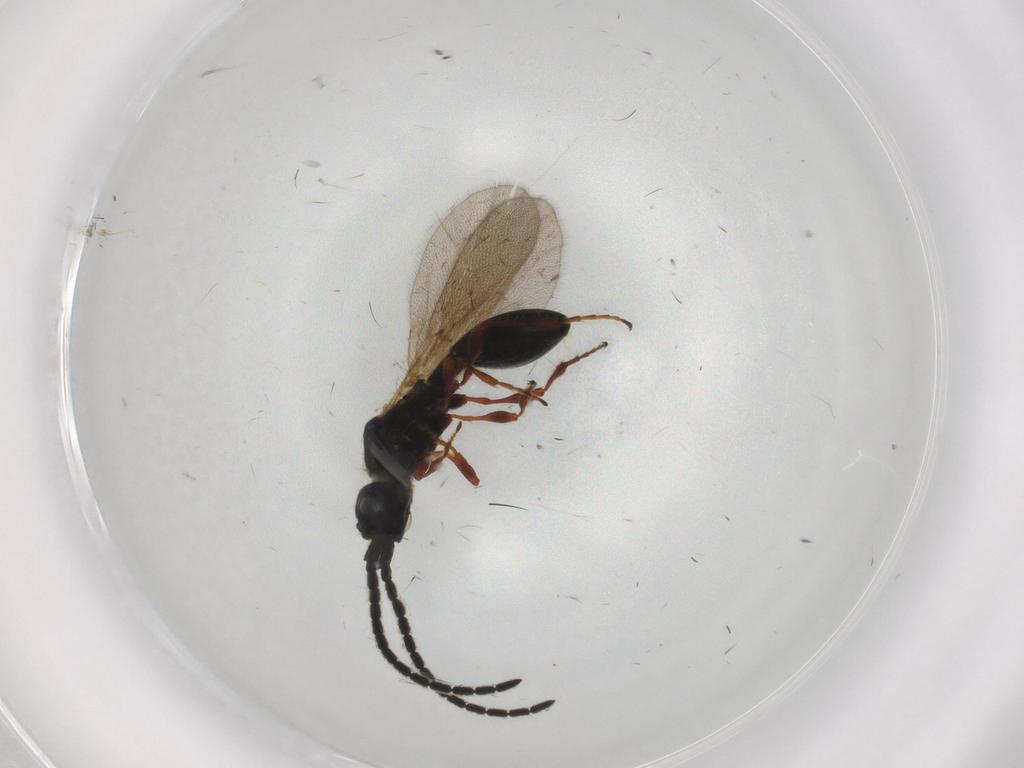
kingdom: Animalia
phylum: Arthropoda
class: Insecta
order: Hymenoptera
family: Diapriidae
